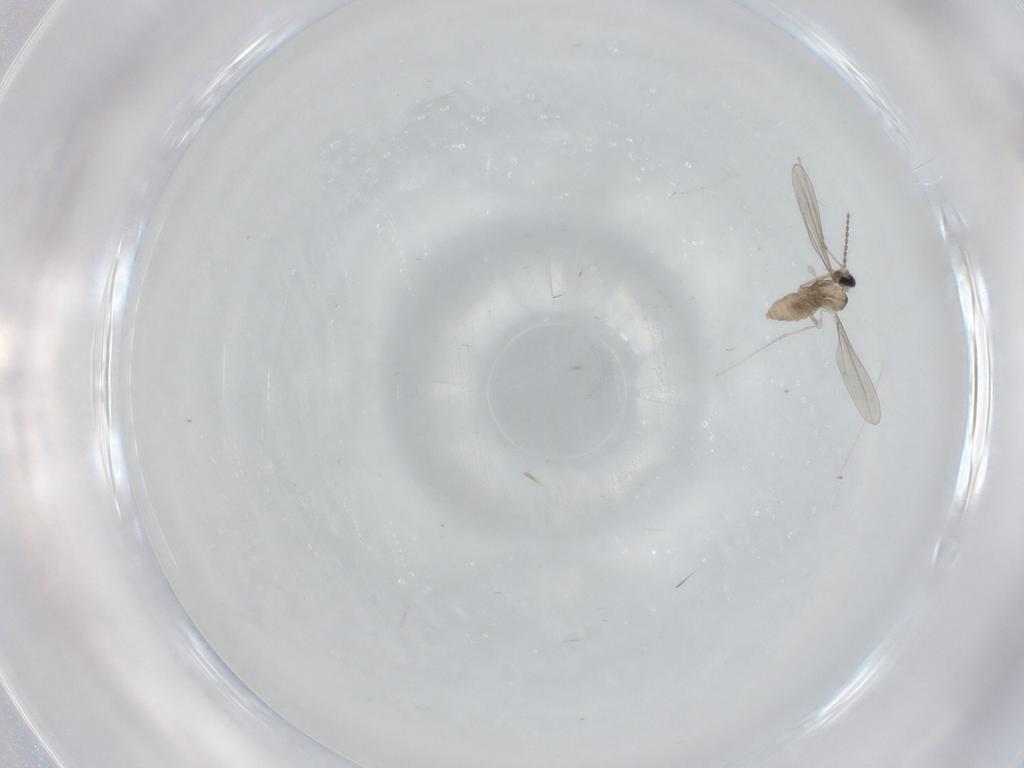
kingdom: Animalia
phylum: Arthropoda
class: Insecta
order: Diptera
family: Cecidomyiidae
